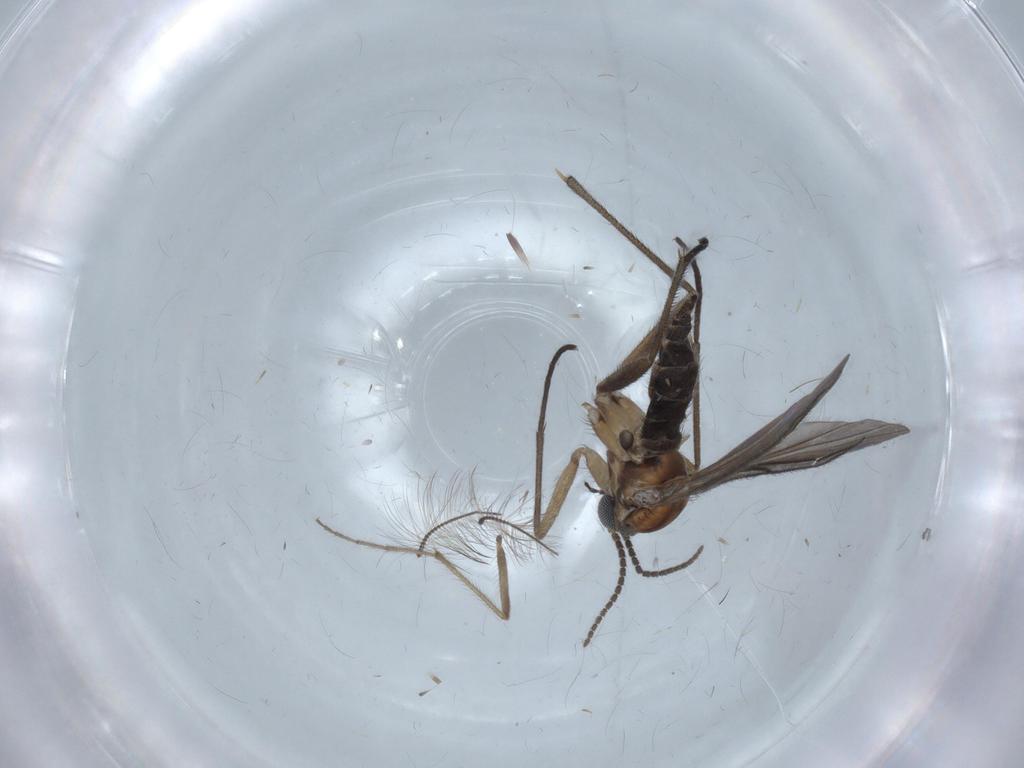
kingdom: Animalia
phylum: Arthropoda
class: Insecta
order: Diptera
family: Chironomidae
